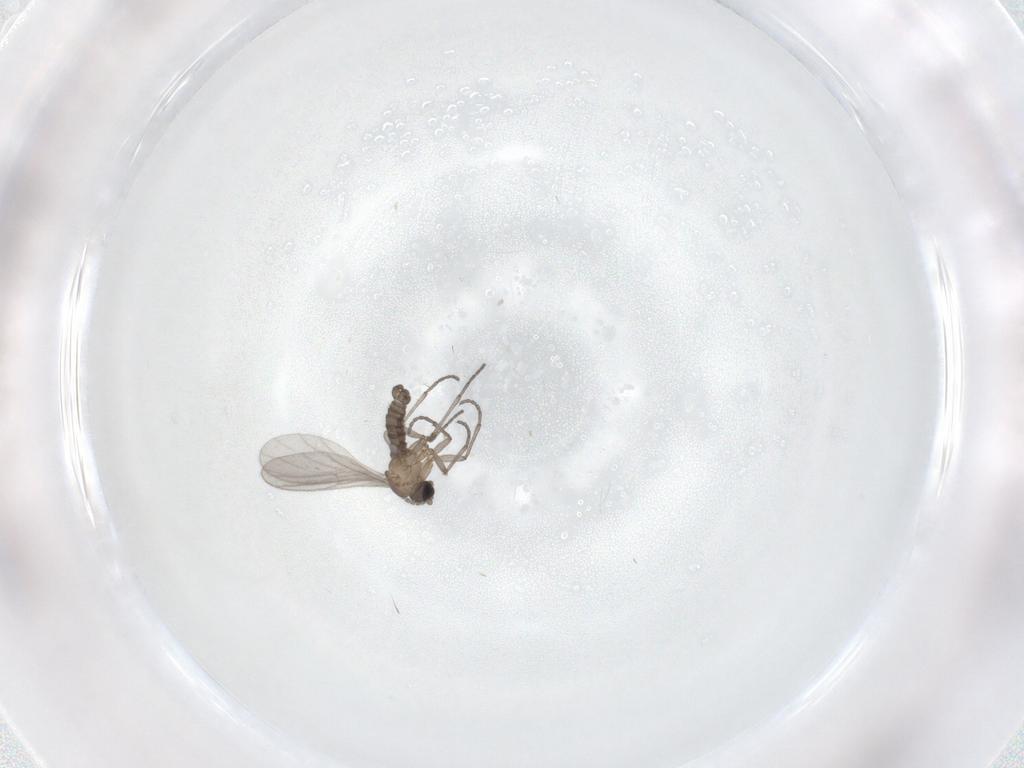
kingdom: Animalia
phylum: Arthropoda
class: Insecta
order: Diptera
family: Sciaridae
